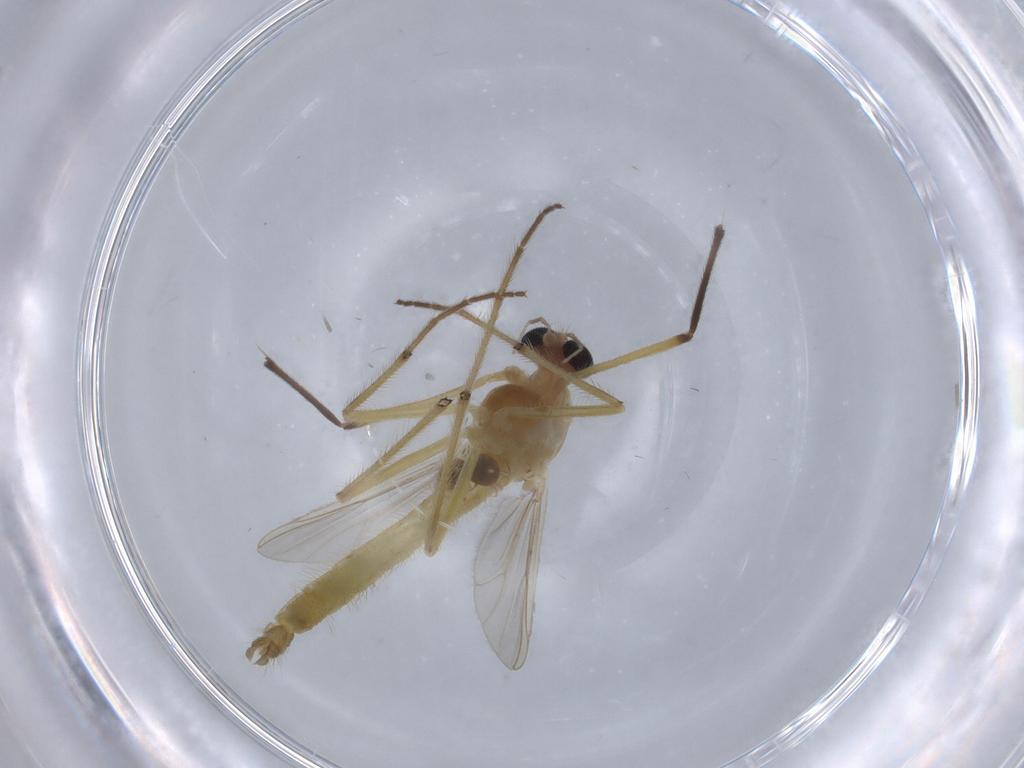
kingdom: Animalia
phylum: Arthropoda
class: Insecta
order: Diptera
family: Chironomidae
